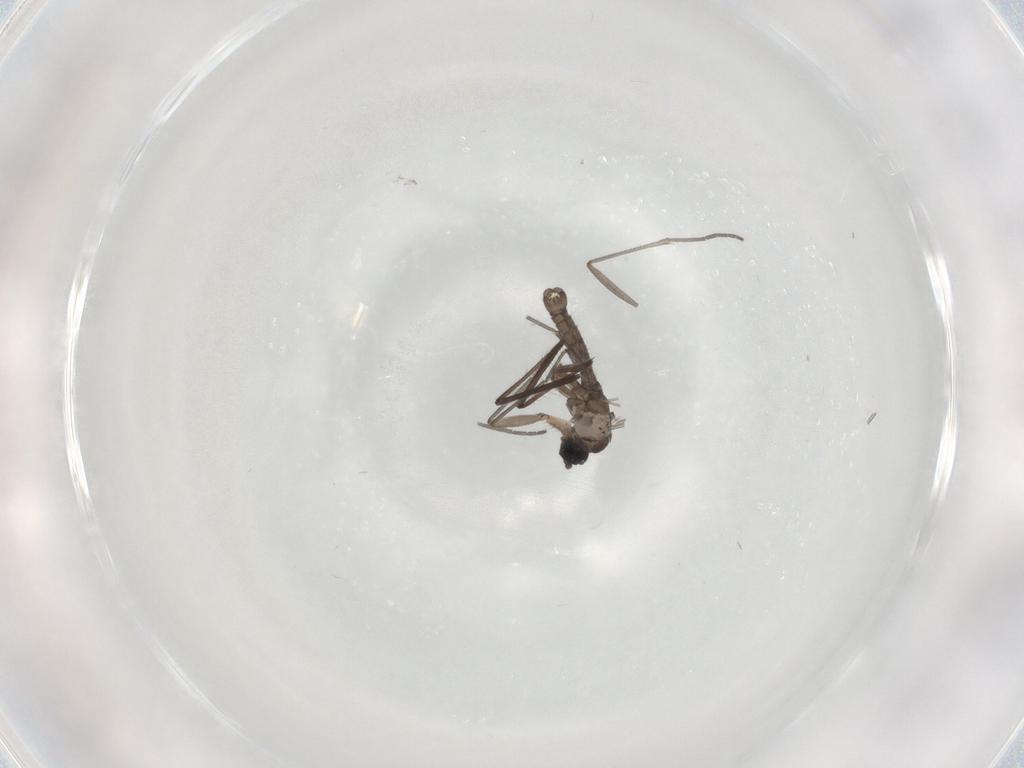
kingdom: Animalia
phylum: Arthropoda
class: Insecta
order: Diptera
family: Sciaridae
